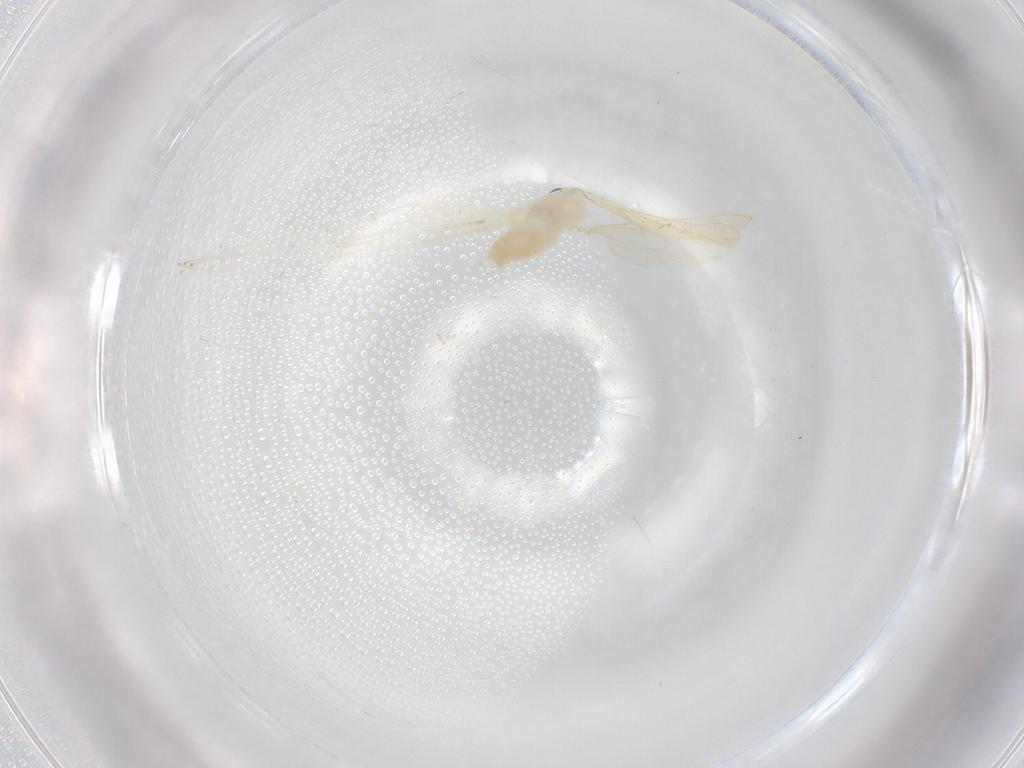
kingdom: Animalia
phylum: Arthropoda
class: Insecta
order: Diptera
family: Cecidomyiidae
